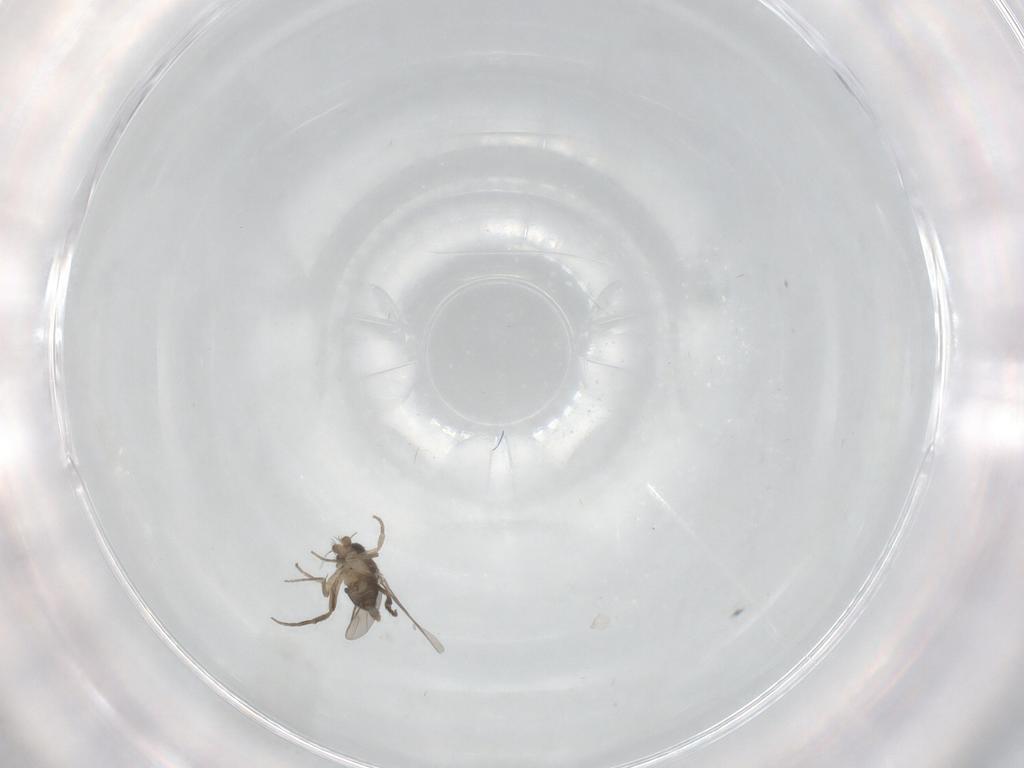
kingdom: Animalia
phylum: Arthropoda
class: Insecta
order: Diptera
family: Phoridae
